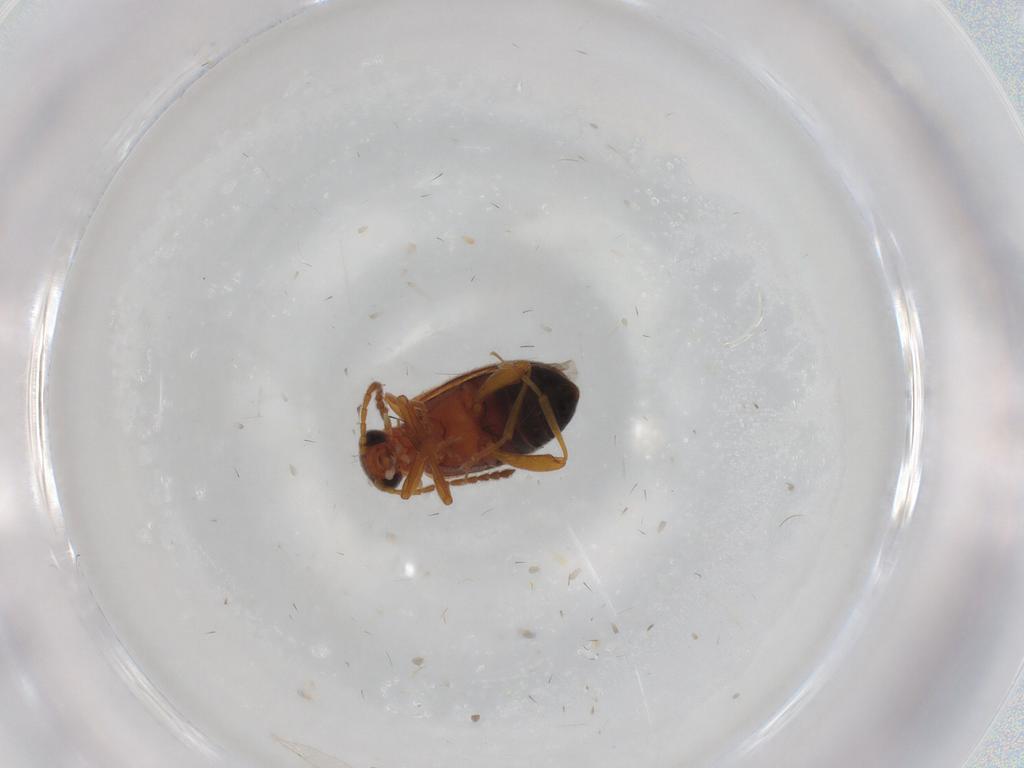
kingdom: Animalia
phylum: Arthropoda
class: Insecta
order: Coleoptera
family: Aderidae
